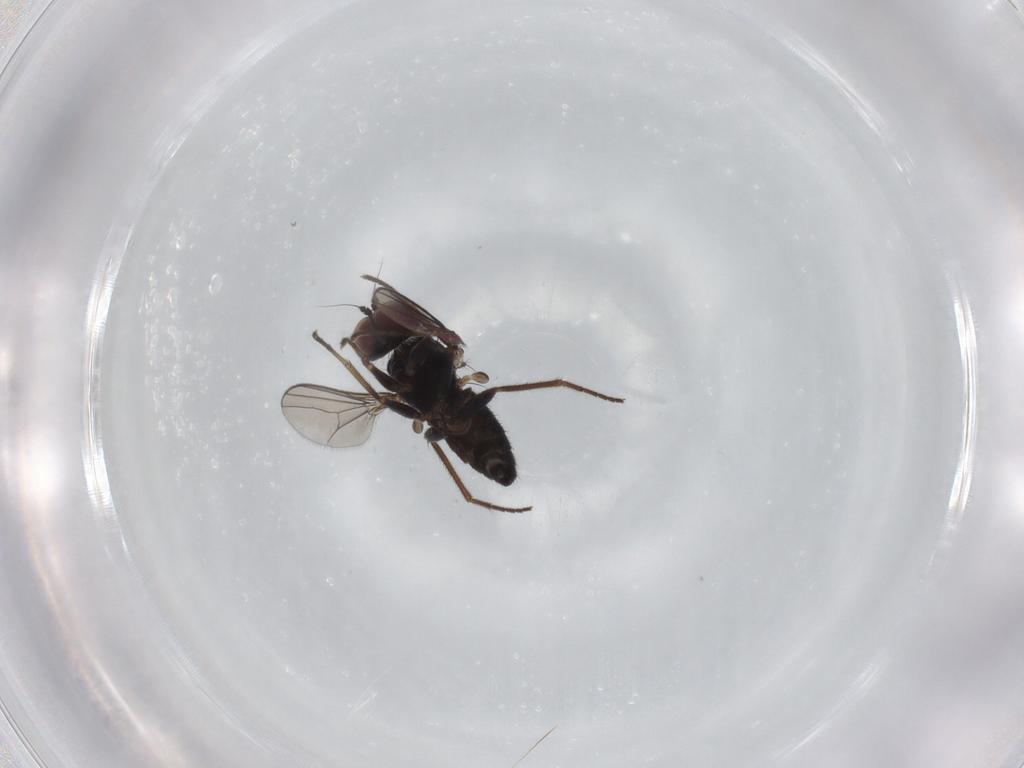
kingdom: Animalia
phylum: Arthropoda
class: Insecta
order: Diptera
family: Dolichopodidae
